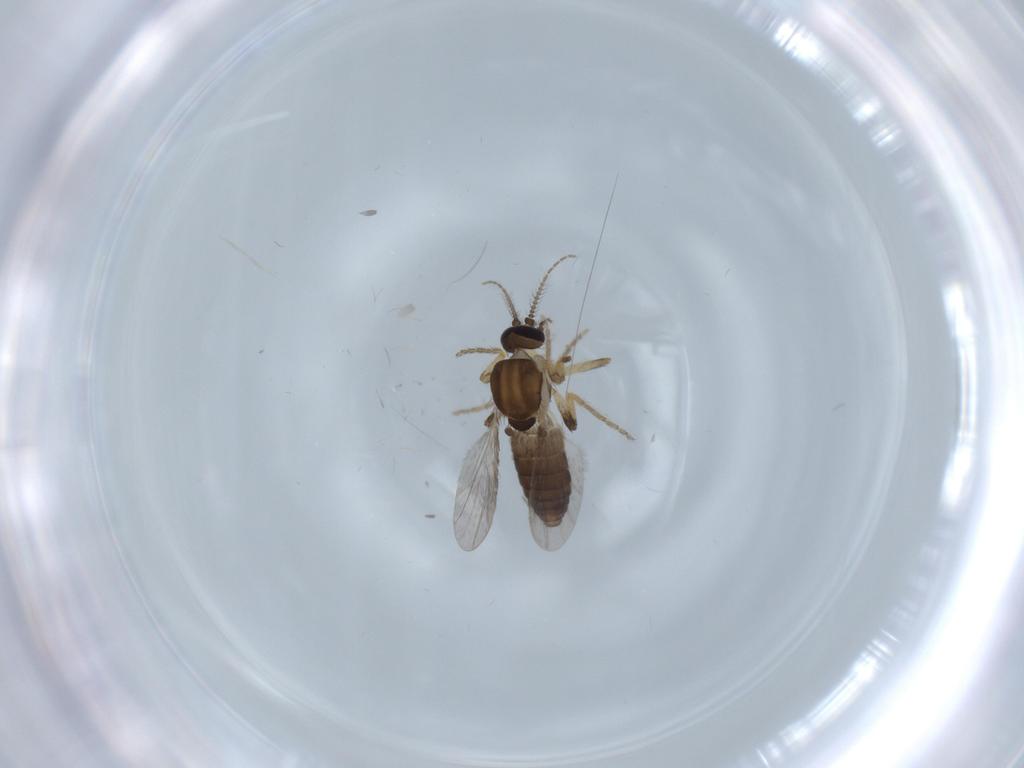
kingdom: Animalia
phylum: Arthropoda
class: Insecta
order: Diptera
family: Ceratopogonidae
